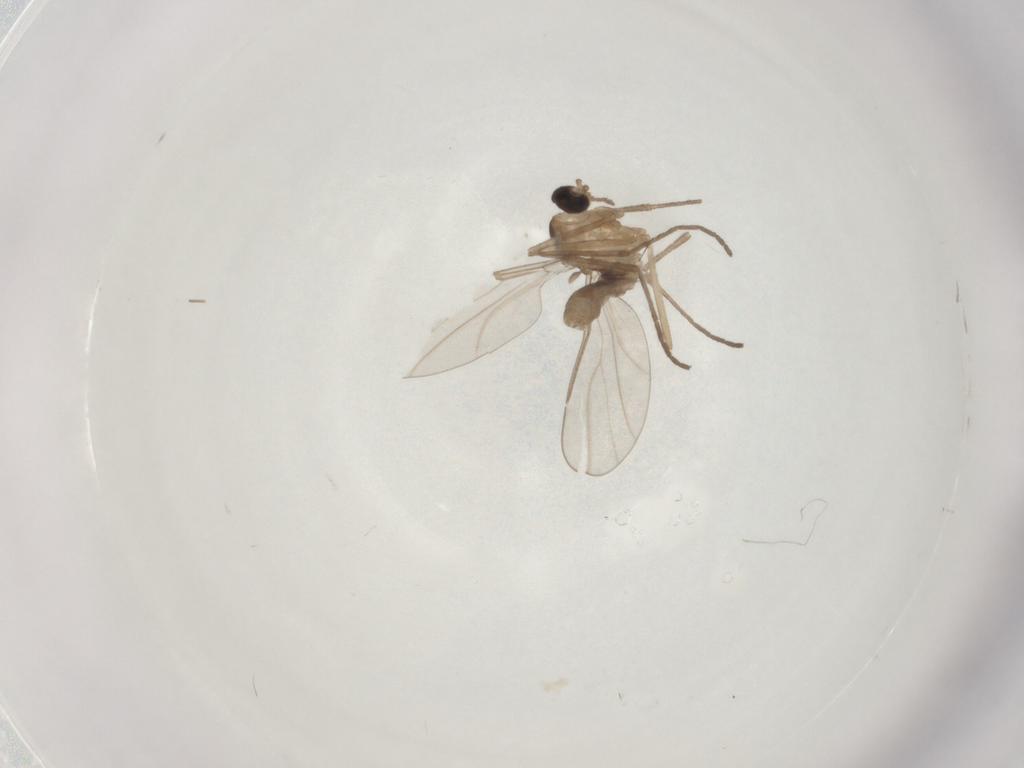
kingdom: Animalia
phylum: Arthropoda
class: Insecta
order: Diptera
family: Cecidomyiidae
